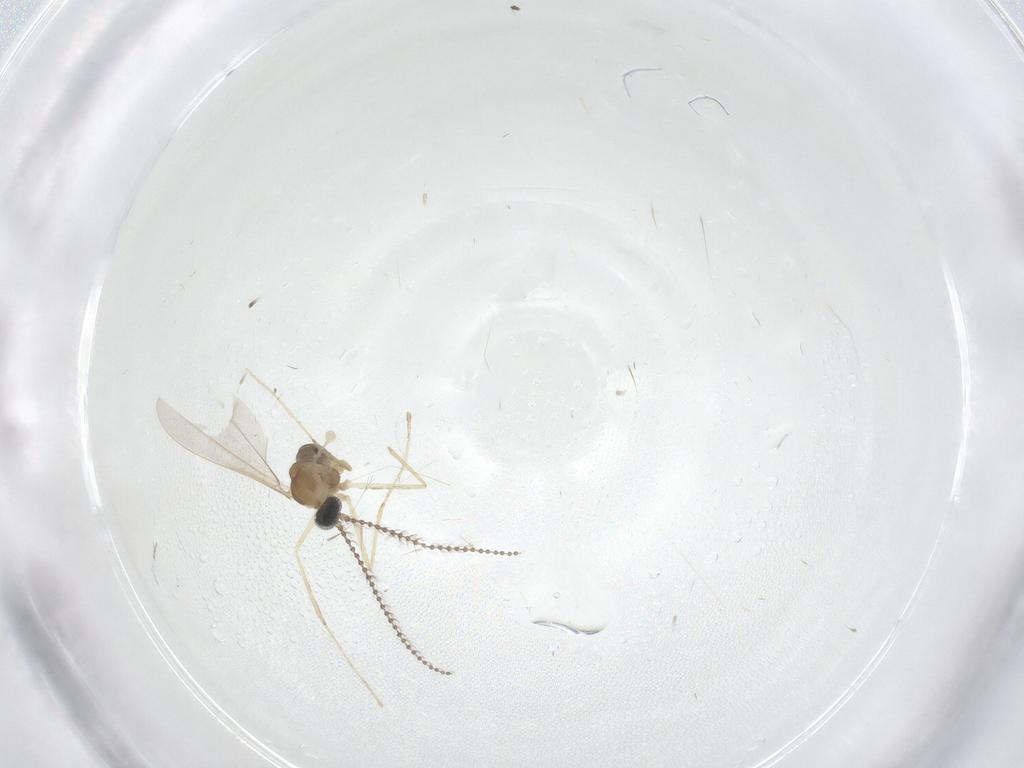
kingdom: Animalia
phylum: Arthropoda
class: Insecta
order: Diptera
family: Cecidomyiidae
